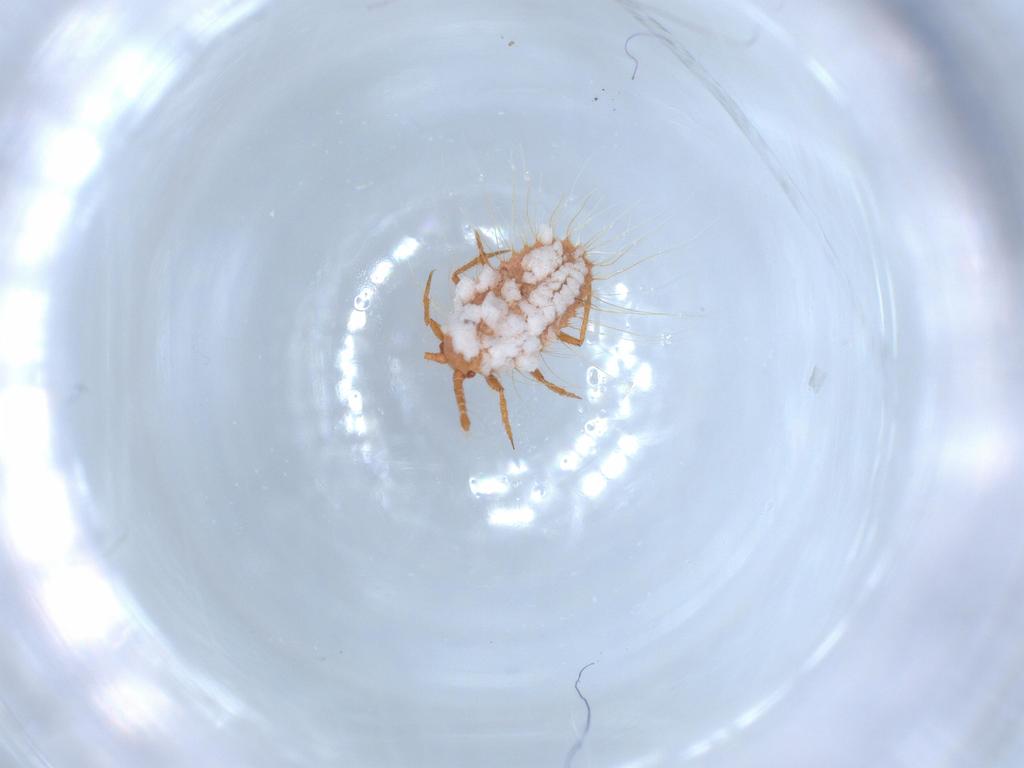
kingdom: Animalia
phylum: Arthropoda
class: Insecta
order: Hemiptera
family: Coccoidea_incertae_sedis
